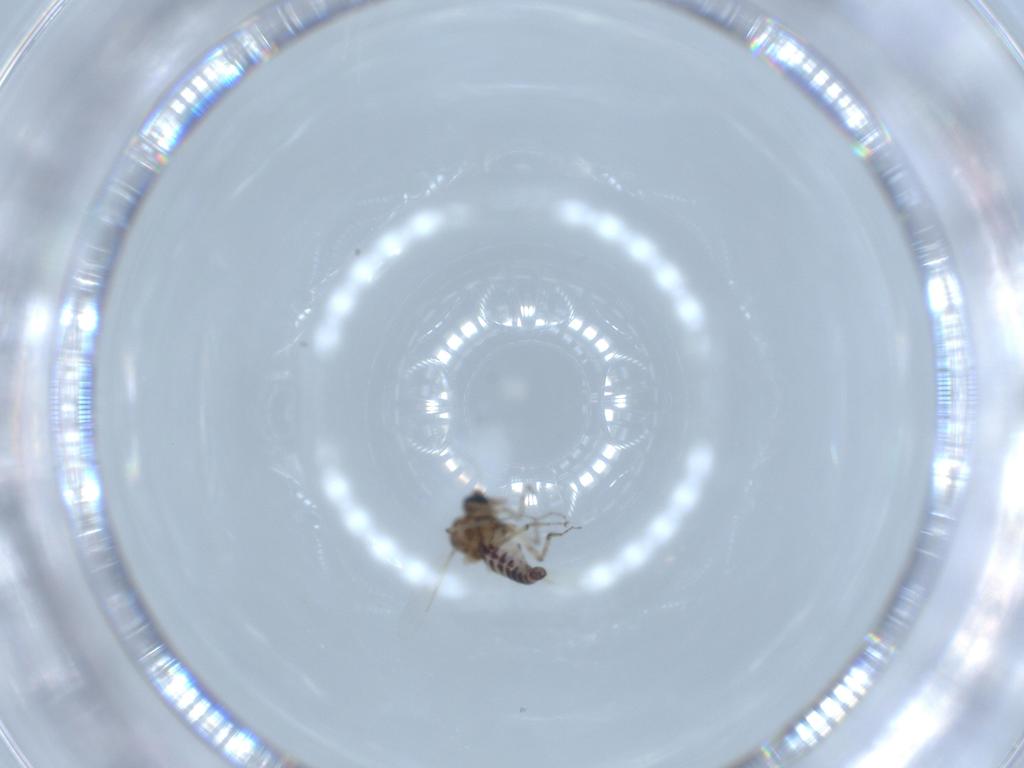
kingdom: Animalia
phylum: Arthropoda
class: Insecta
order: Diptera
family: Ceratopogonidae
